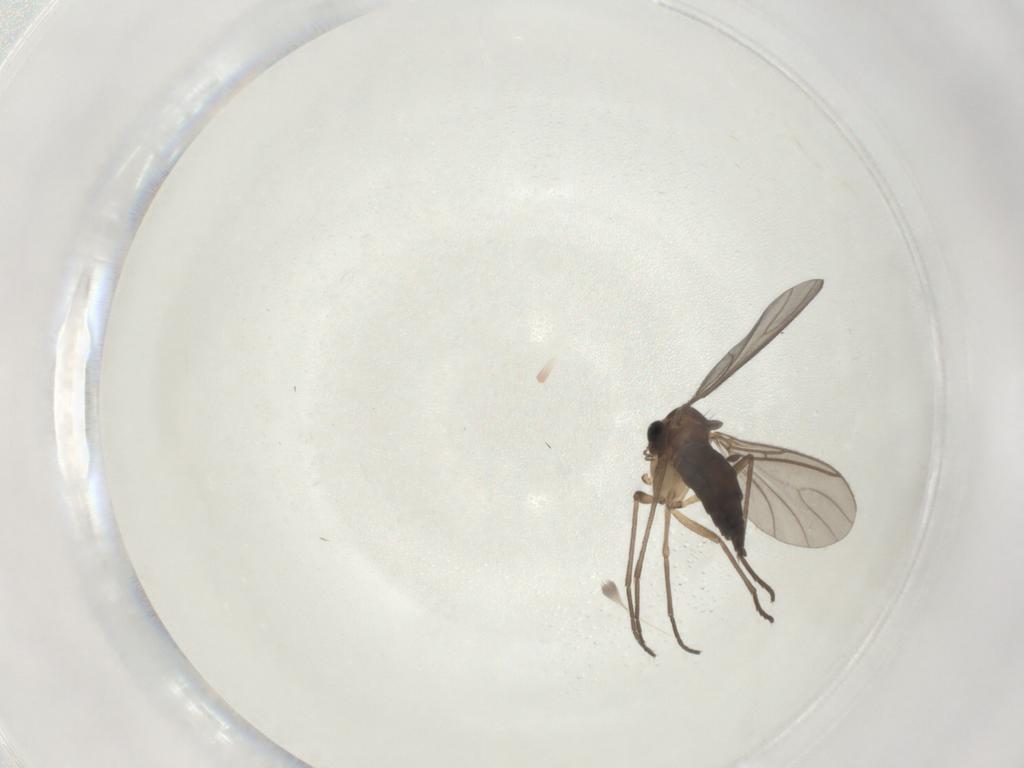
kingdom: Animalia
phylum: Arthropoda
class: Insecta
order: Diptera
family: Sciaridae
